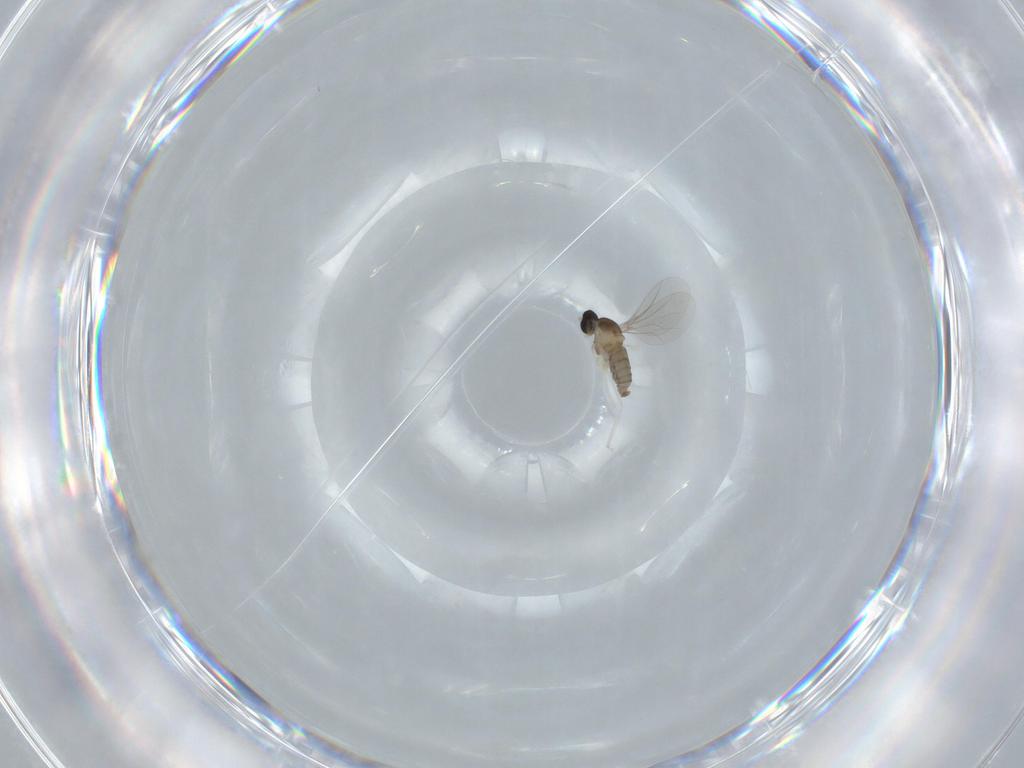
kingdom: Animalia
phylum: Arthropoda
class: Insecta
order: Diptera
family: Cecidomyiidae
